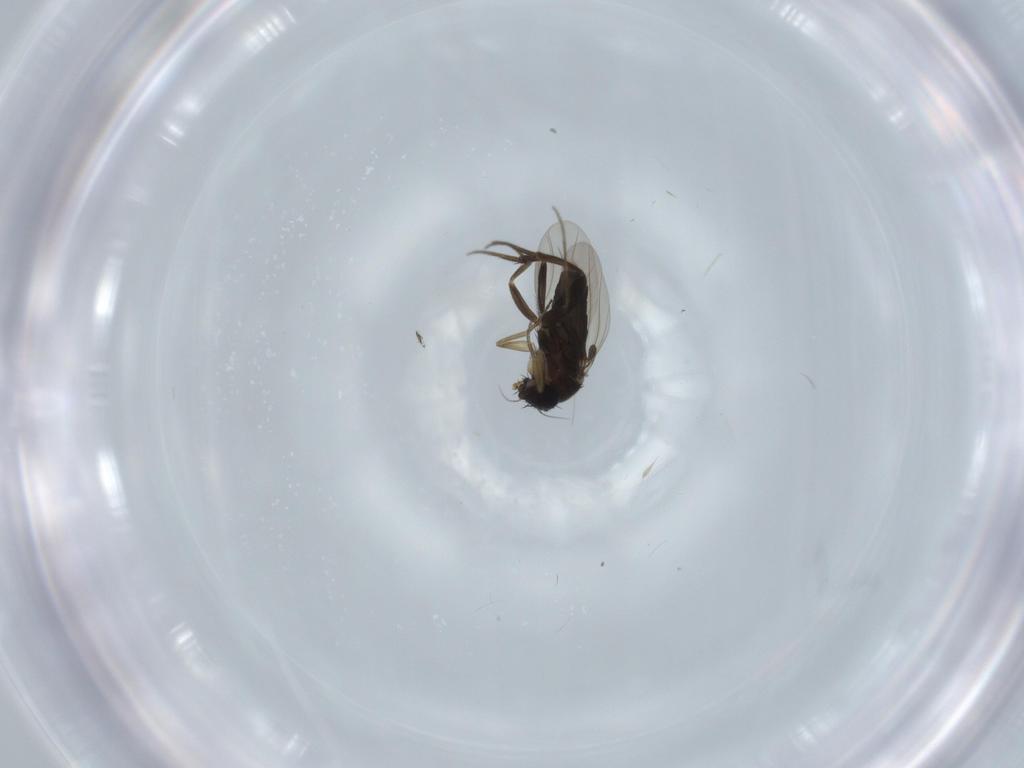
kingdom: Animalia
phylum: Arthropoda
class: Insecta
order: Diptera
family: Phoridae
